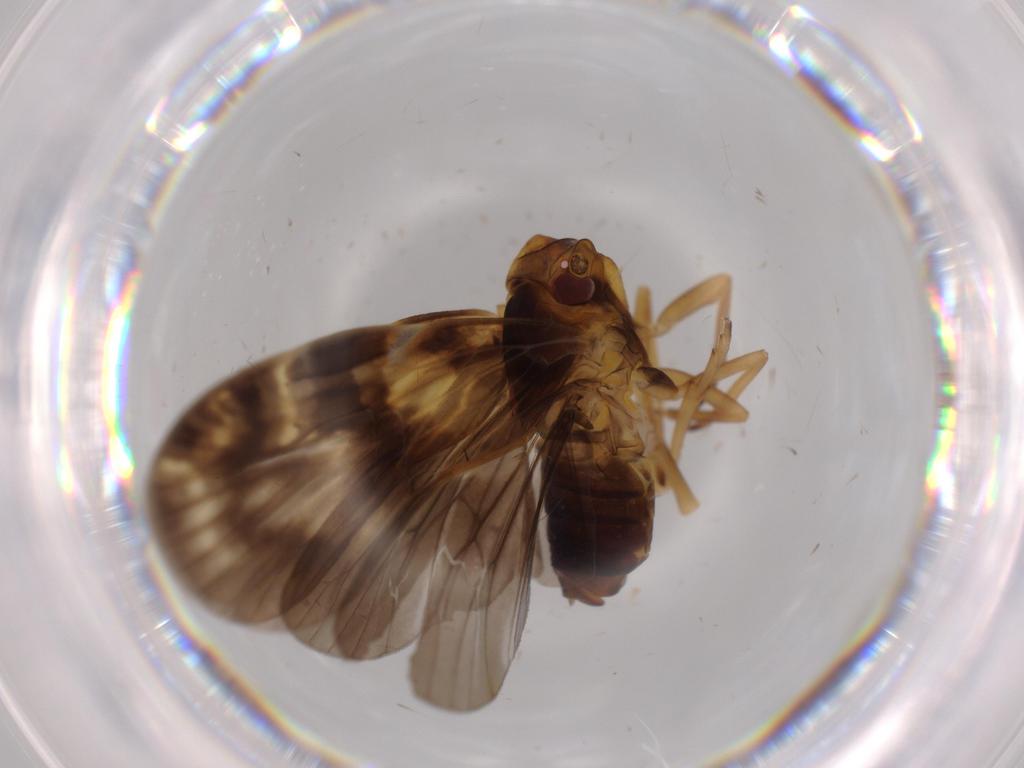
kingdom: Animalia
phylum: Arthropoda
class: Insecta
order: Hemiptera
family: Cixiidae
